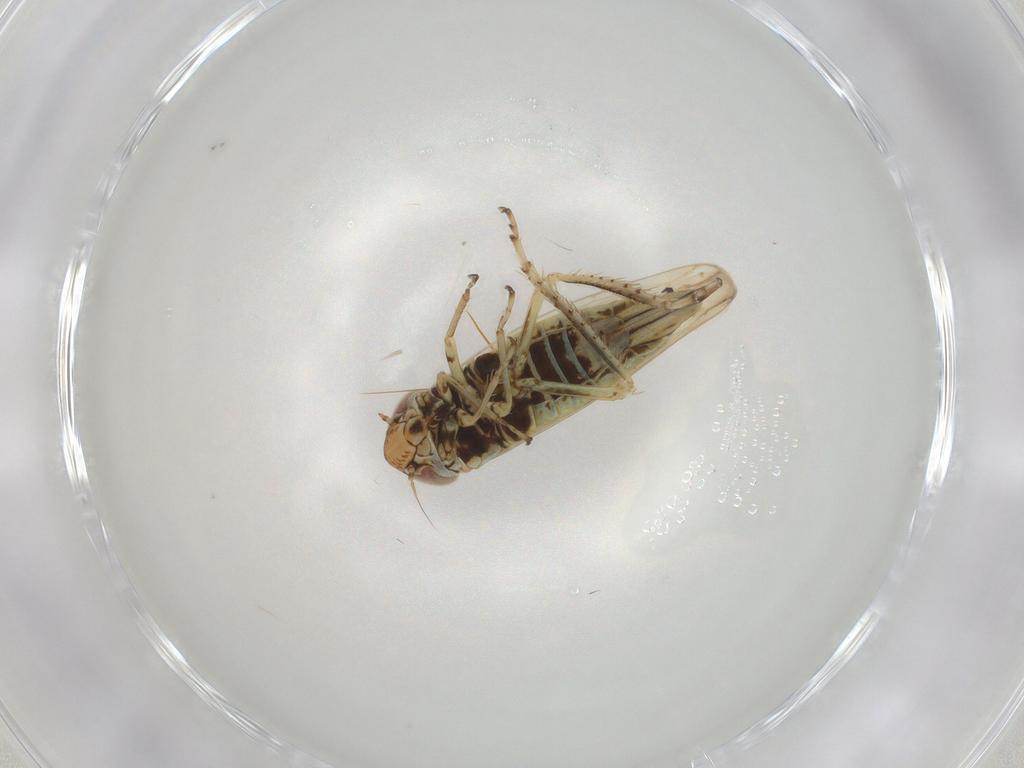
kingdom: Animalia
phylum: Arthropoda
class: Insecta
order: Hemiptera
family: Cicadellidae
